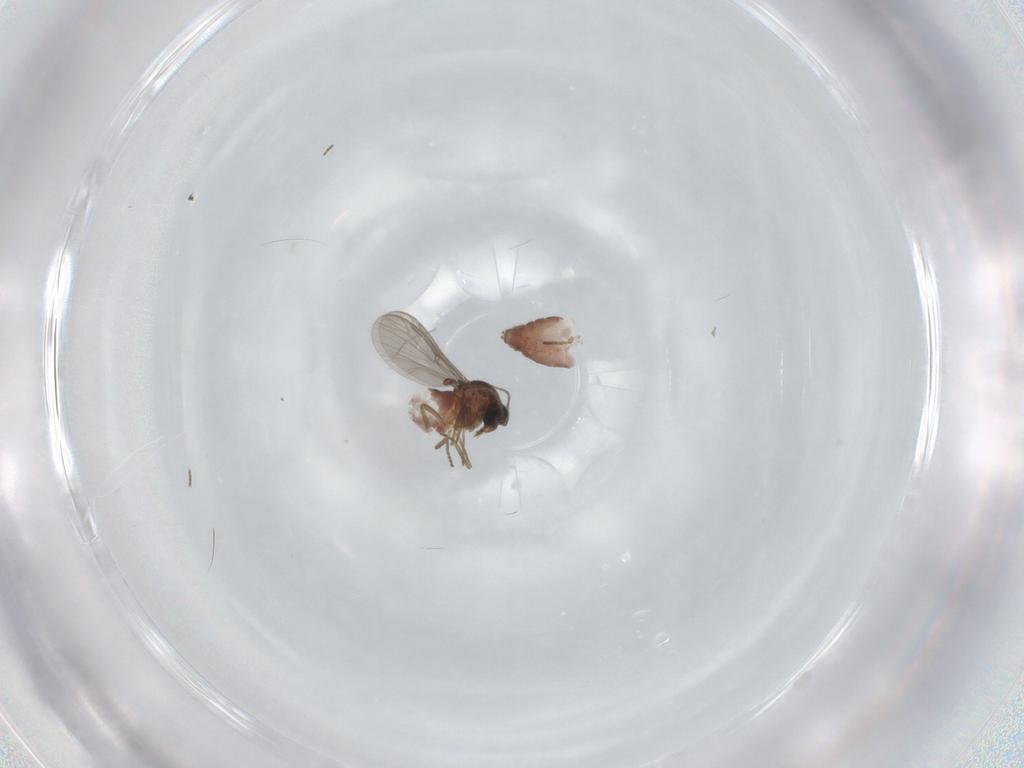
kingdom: Animalia
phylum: Arthropoda
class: Insecta
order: Diptera
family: Ceratopogonidae
